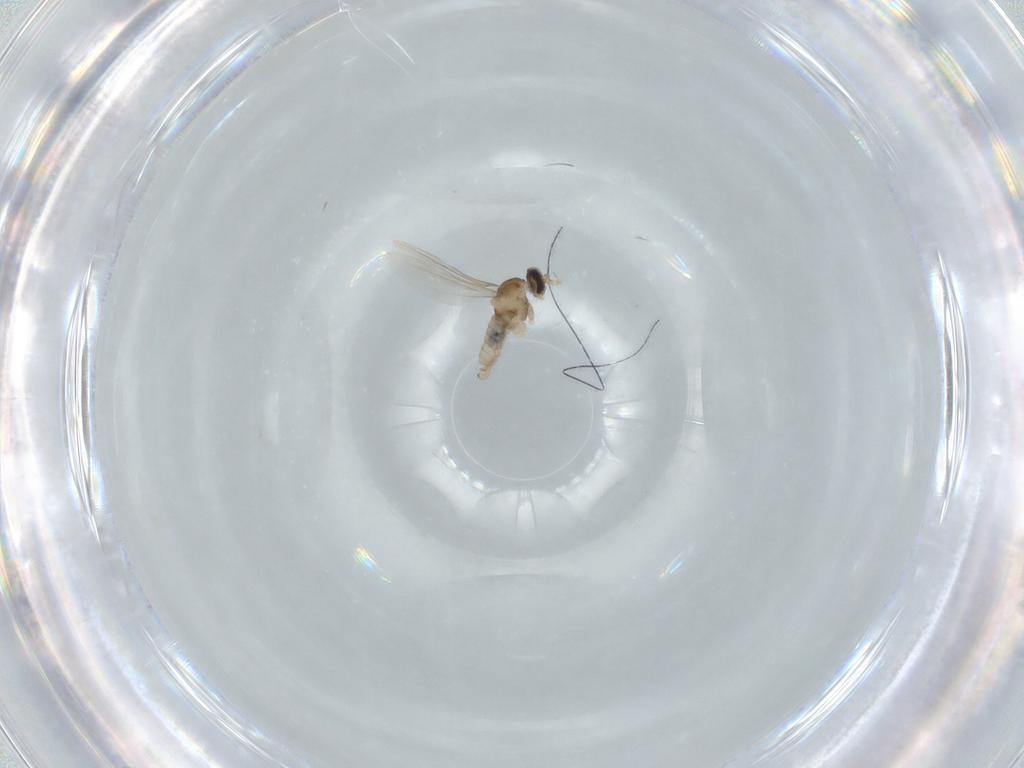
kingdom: Animalia
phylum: Arthropoda
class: Insecta
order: Diptera
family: Cecidomyiidae
